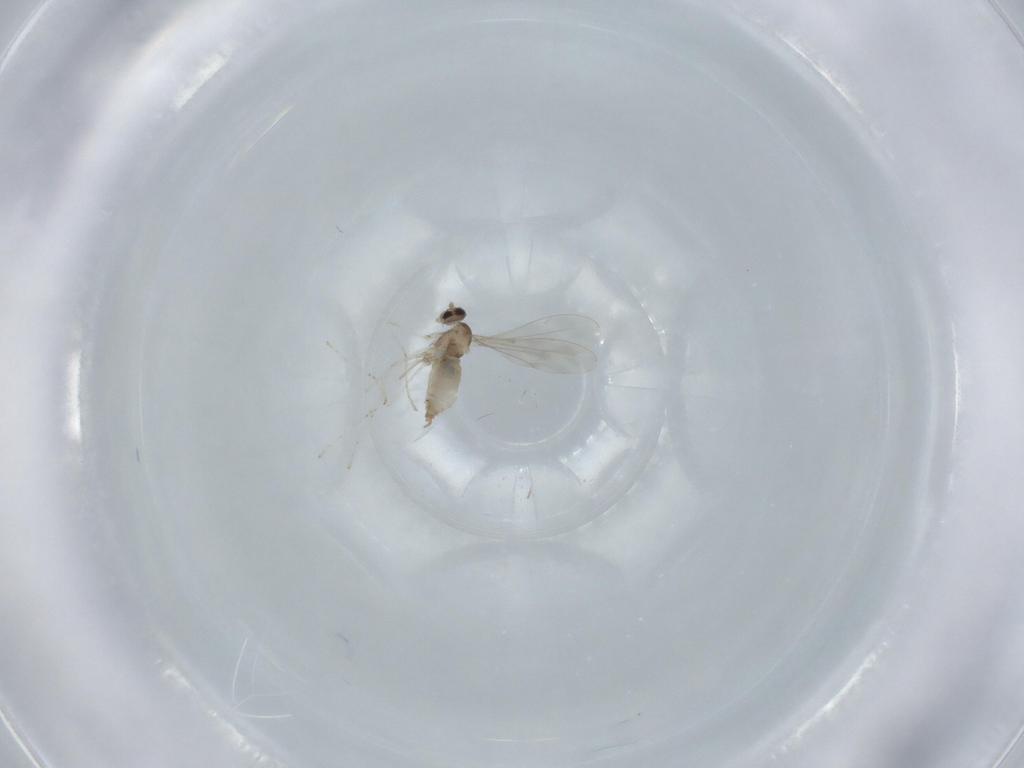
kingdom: Animalia
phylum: Arthropoda
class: Insecta
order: Diptera
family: Cecidomyiidae
